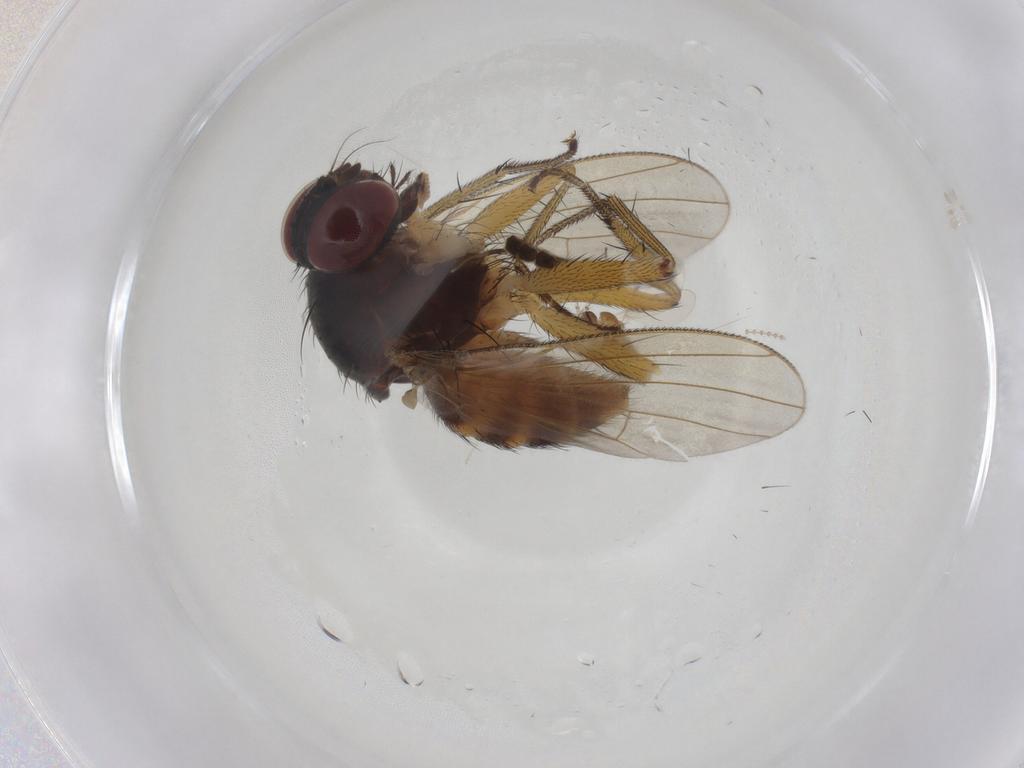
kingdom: Animalia
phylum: Arthropoda
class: Insecta
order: Diptera
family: Muscidae
